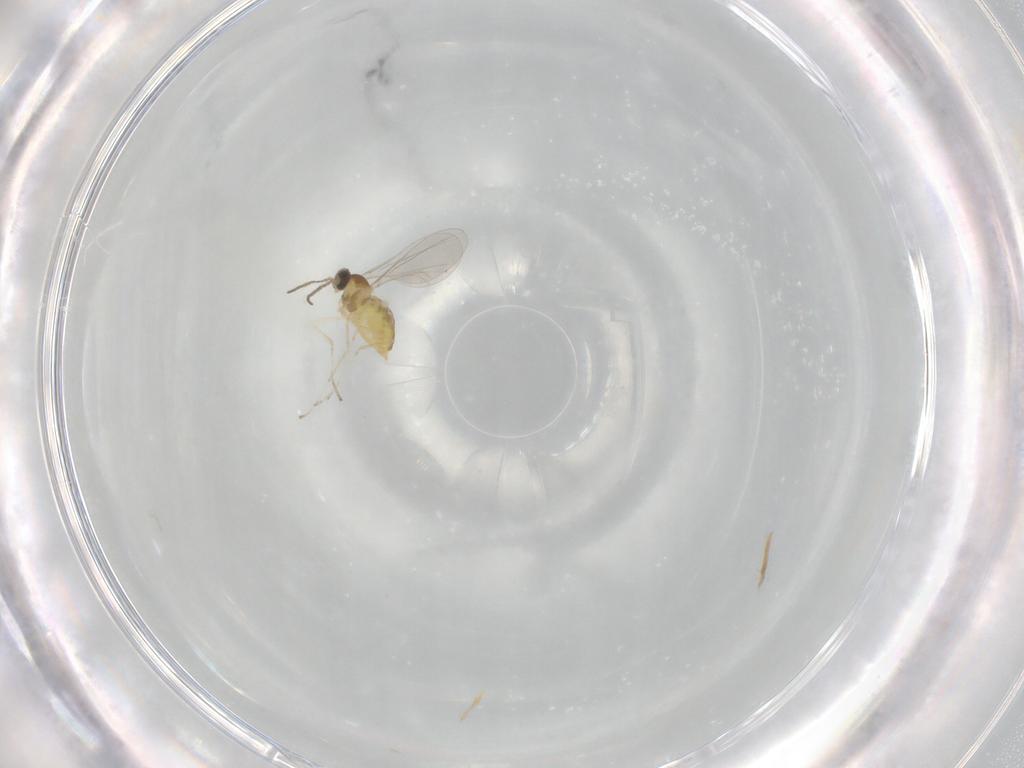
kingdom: Animalia
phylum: Arthropoda
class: Insecta
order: Diptera
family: Cecidomyiidae
